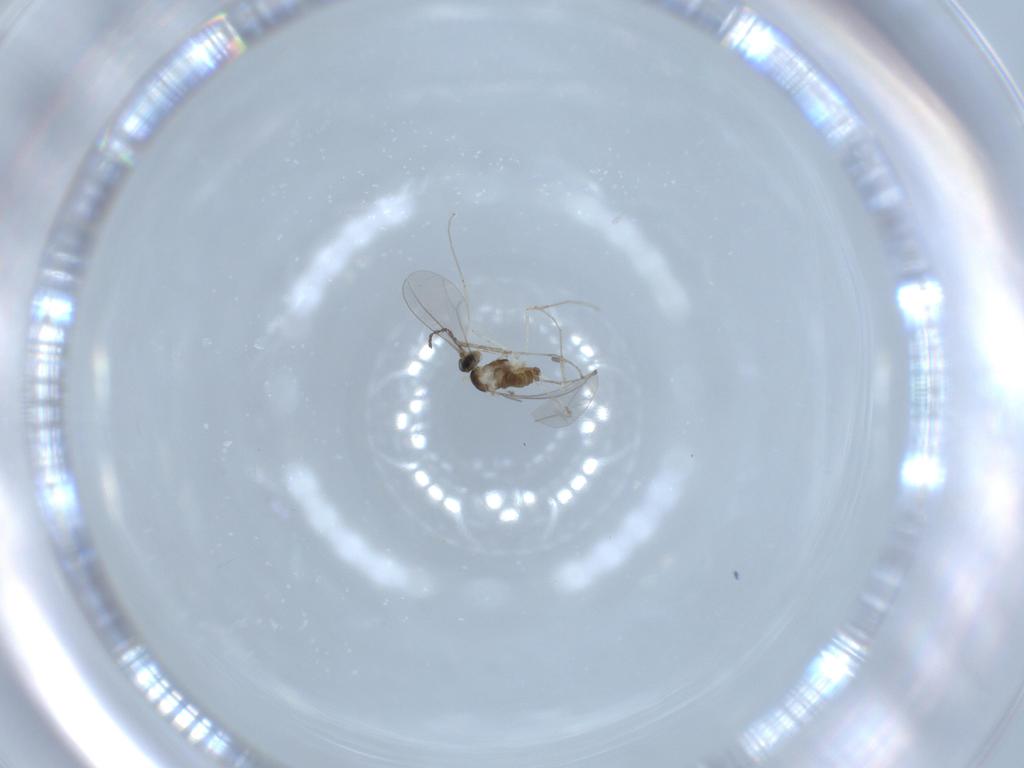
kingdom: Animalia
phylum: Arthropoda
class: Insecta
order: Diptera
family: Cecidomyiidae
